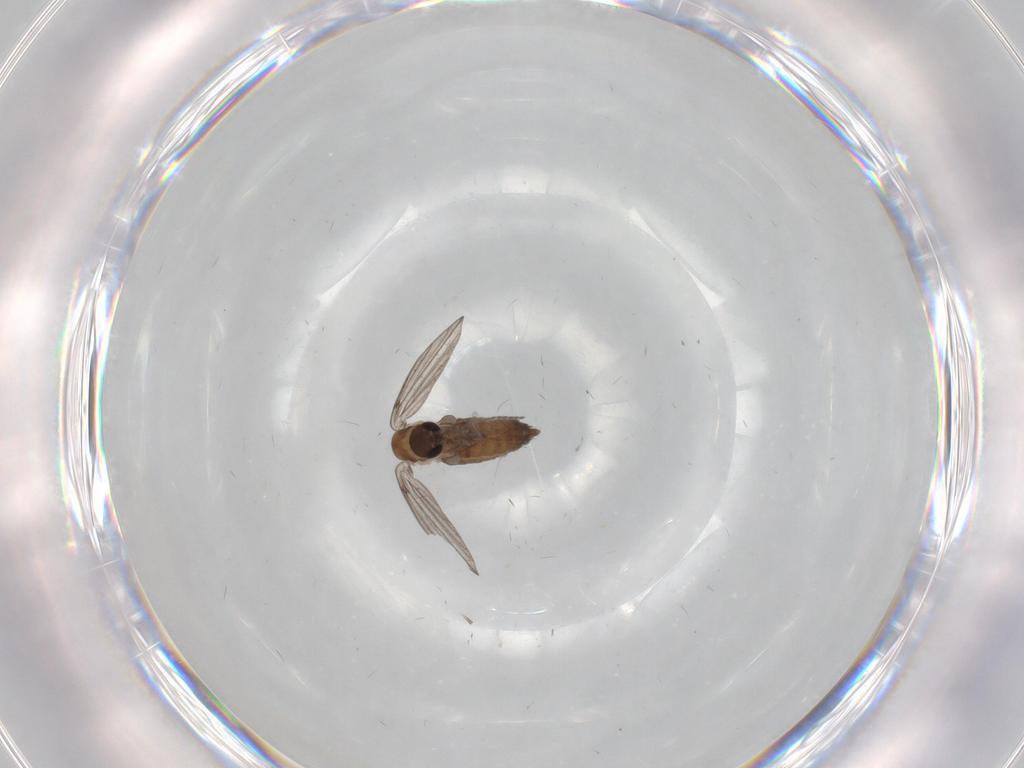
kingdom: Animalia
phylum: Arthropoda
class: Insecta
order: Diptera
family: Cecidomyiidae
